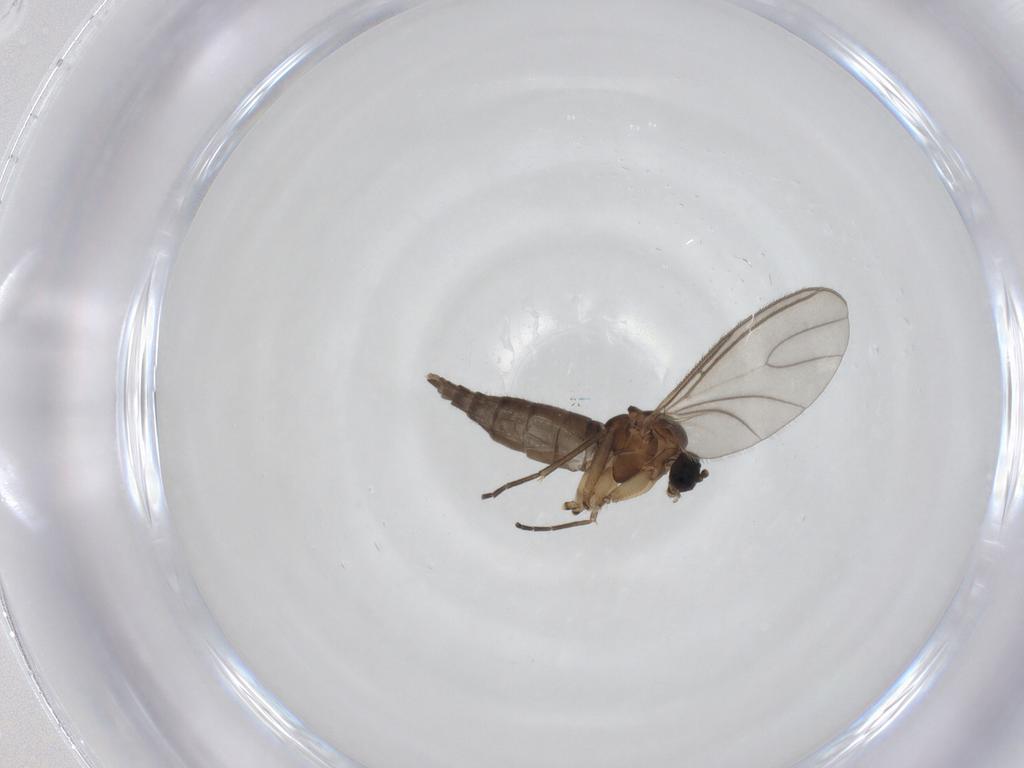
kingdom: Animalia
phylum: Arthropoda
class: Insecta
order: Diptera
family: Sciaridae
